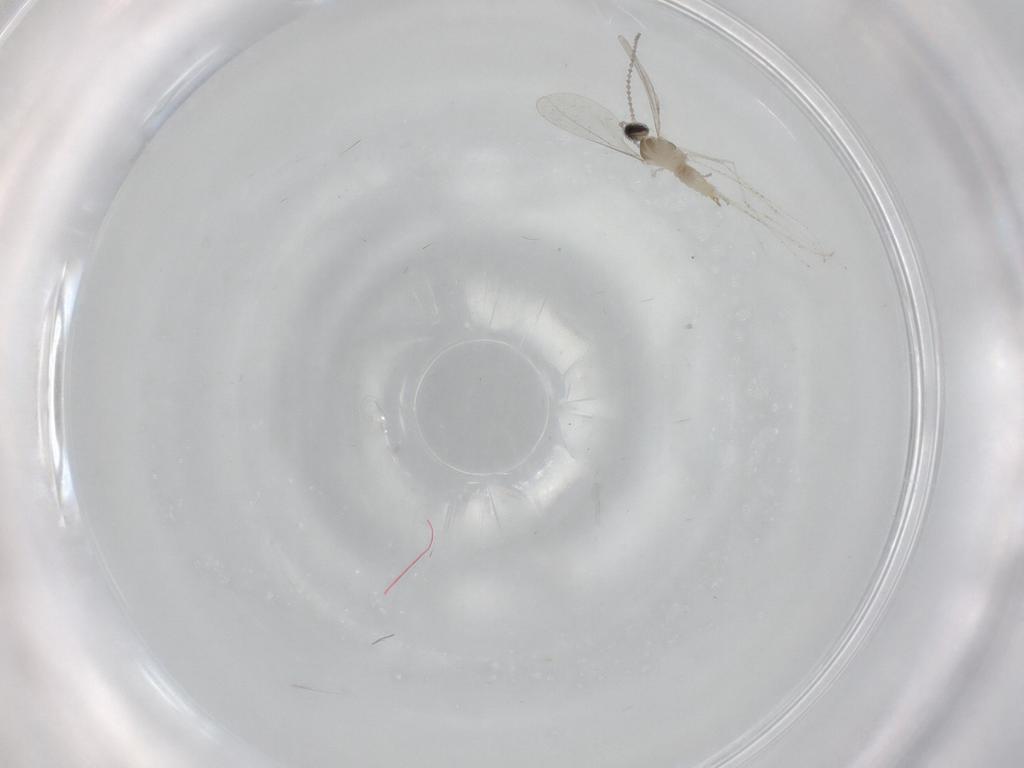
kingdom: Animalia
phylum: Arthropoda
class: Insecta
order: Diptera
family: Cecidomyiidae
